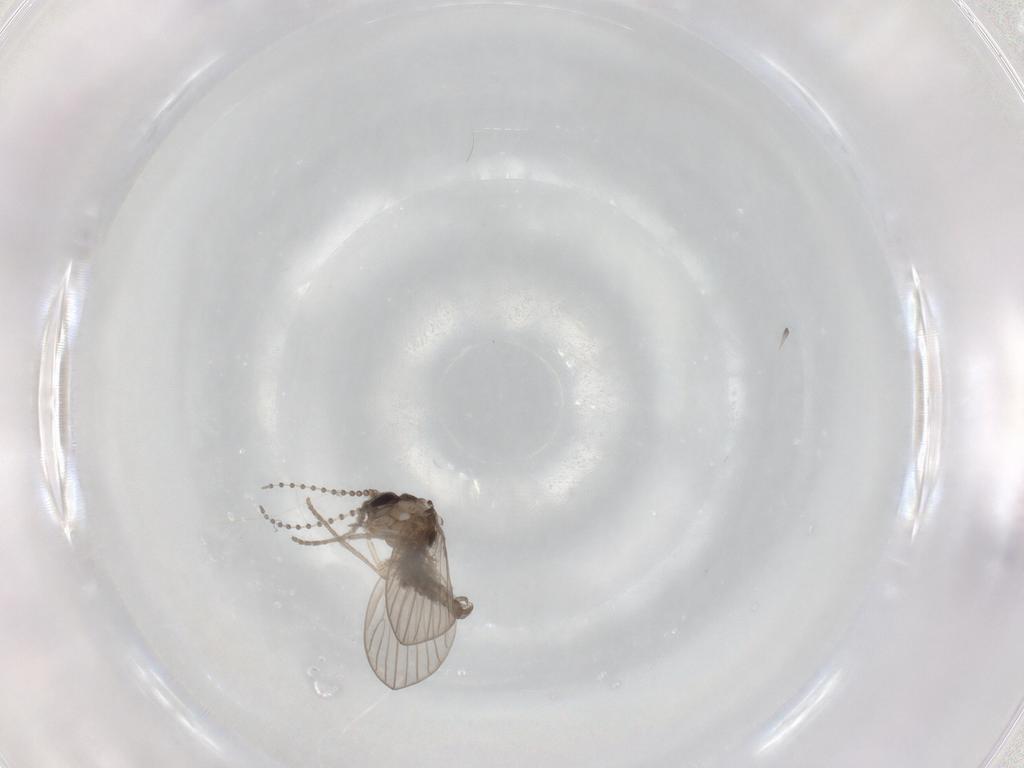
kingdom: Animalia
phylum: Arthropoda
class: Insecta
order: Diptera
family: Psychodidae
